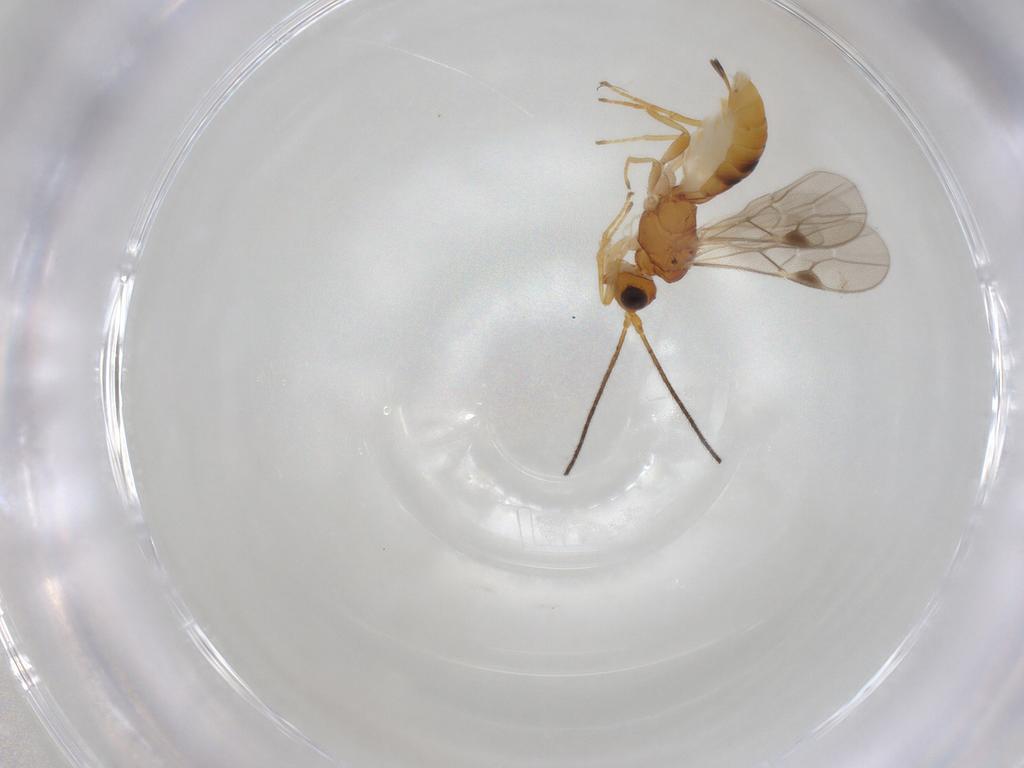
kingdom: Animalia
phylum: Arthropoda
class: Insecta
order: Hymenoptera
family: Braconidae
